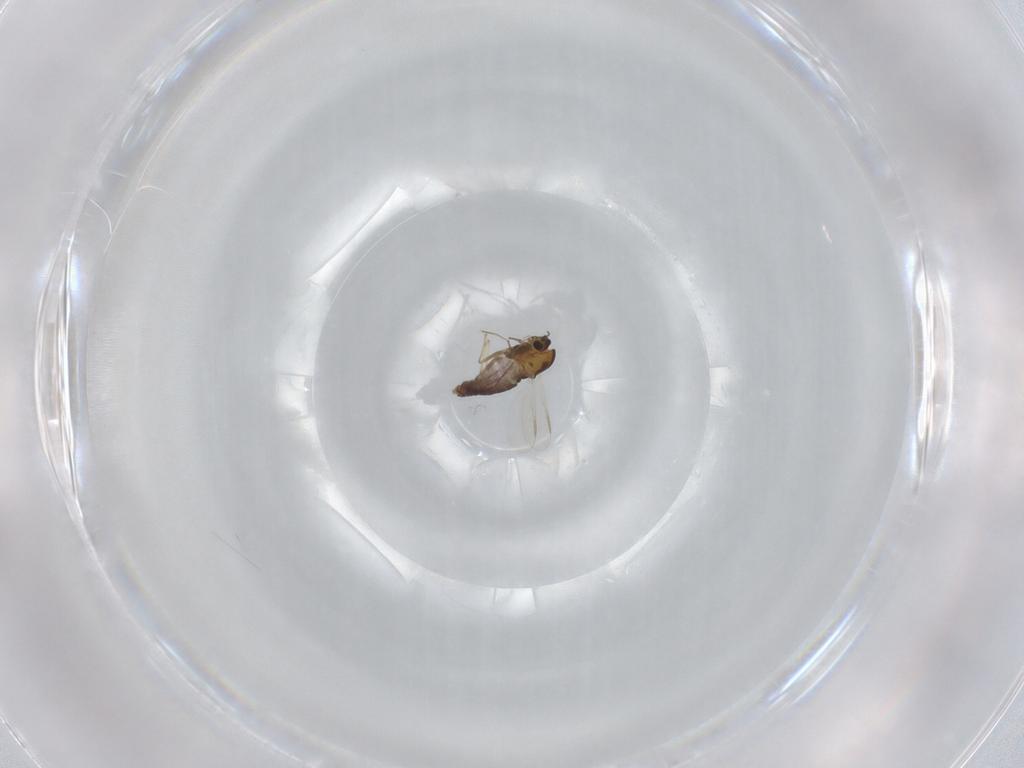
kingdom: Animalia
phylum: Arthropoda
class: Insecta
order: Diptera
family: Chironomidae
